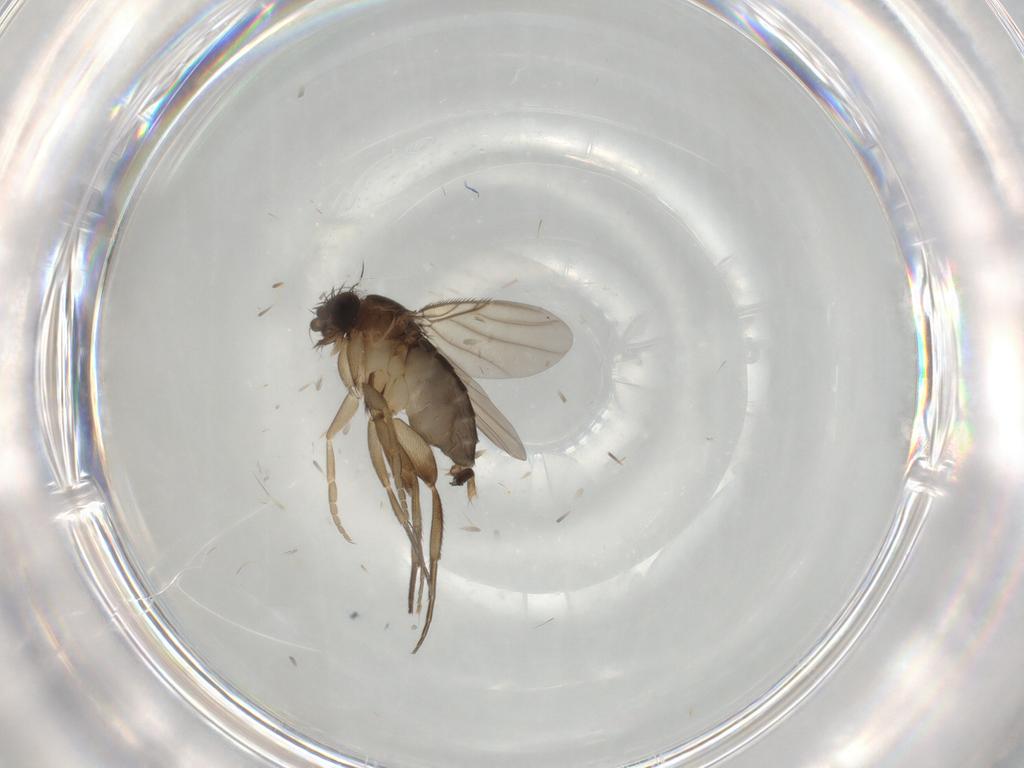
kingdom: Animalia
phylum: Arthropoda
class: Insecta
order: Diptera
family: Phoridae
